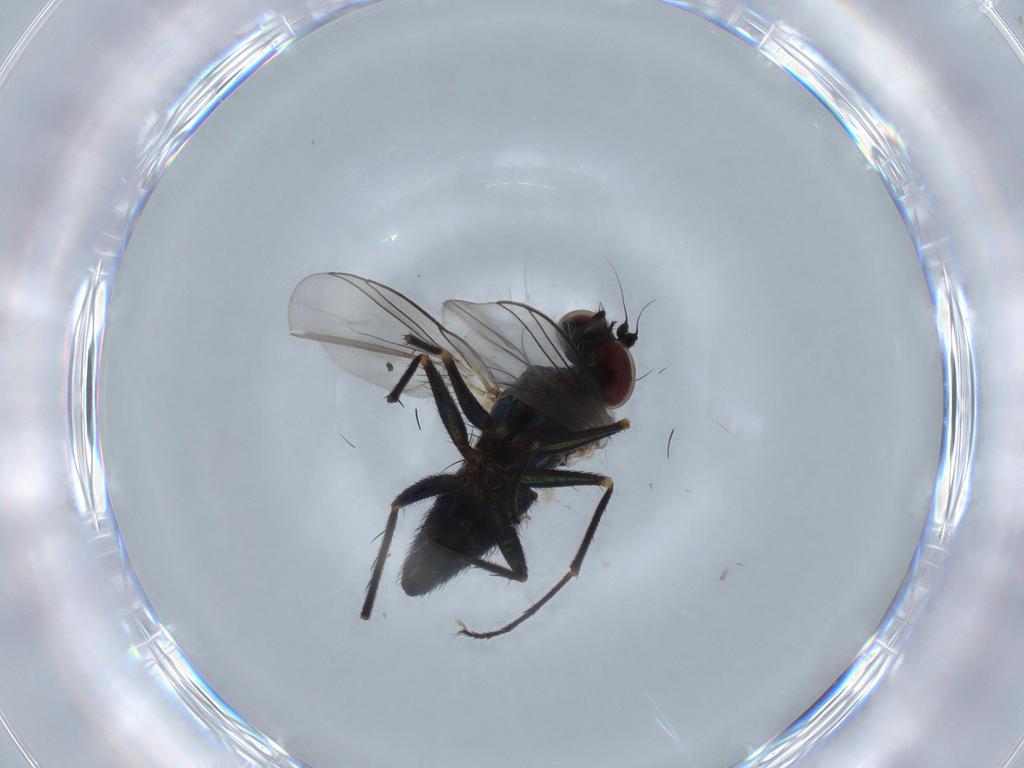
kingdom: Animalia
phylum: Arthropoda
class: Insecta
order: Diptera
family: Dolichopodidae
